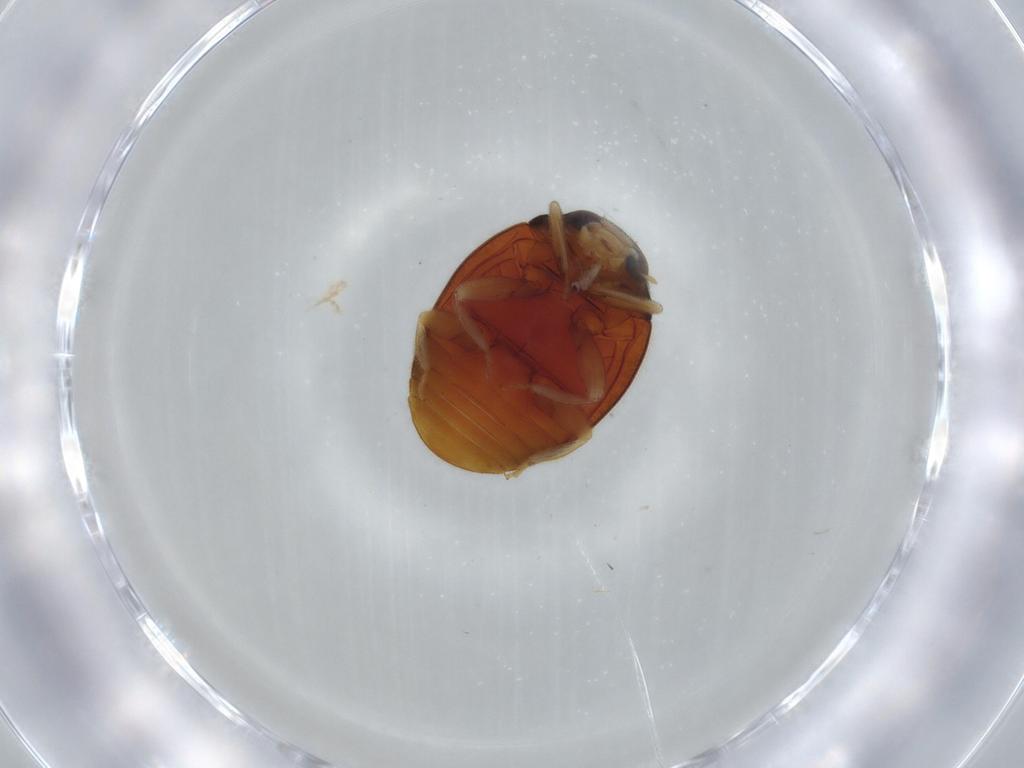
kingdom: Animalia
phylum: Arthropoda
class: Insecta
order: Coleoptera
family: Coccinellidae
